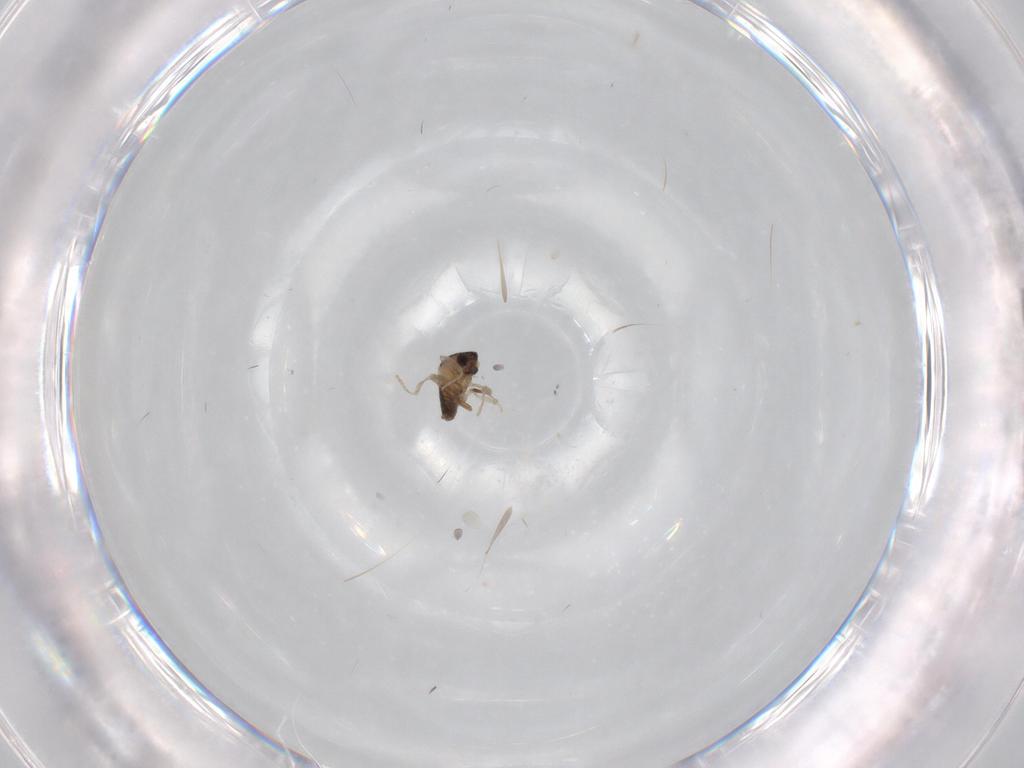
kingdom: Animalia
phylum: Arthropoda
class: Insecta
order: Diptera
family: Cecidomyiidae
